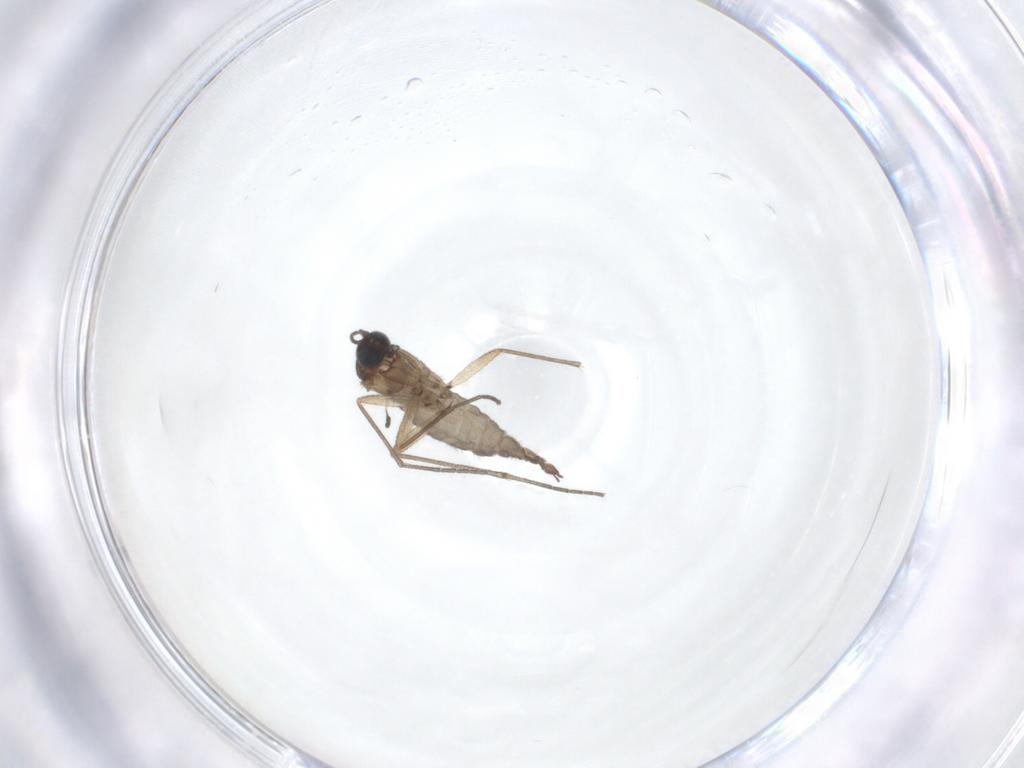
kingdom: Animalia
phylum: Arthropoda
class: Insecta
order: Diptera
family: Sciaridae
